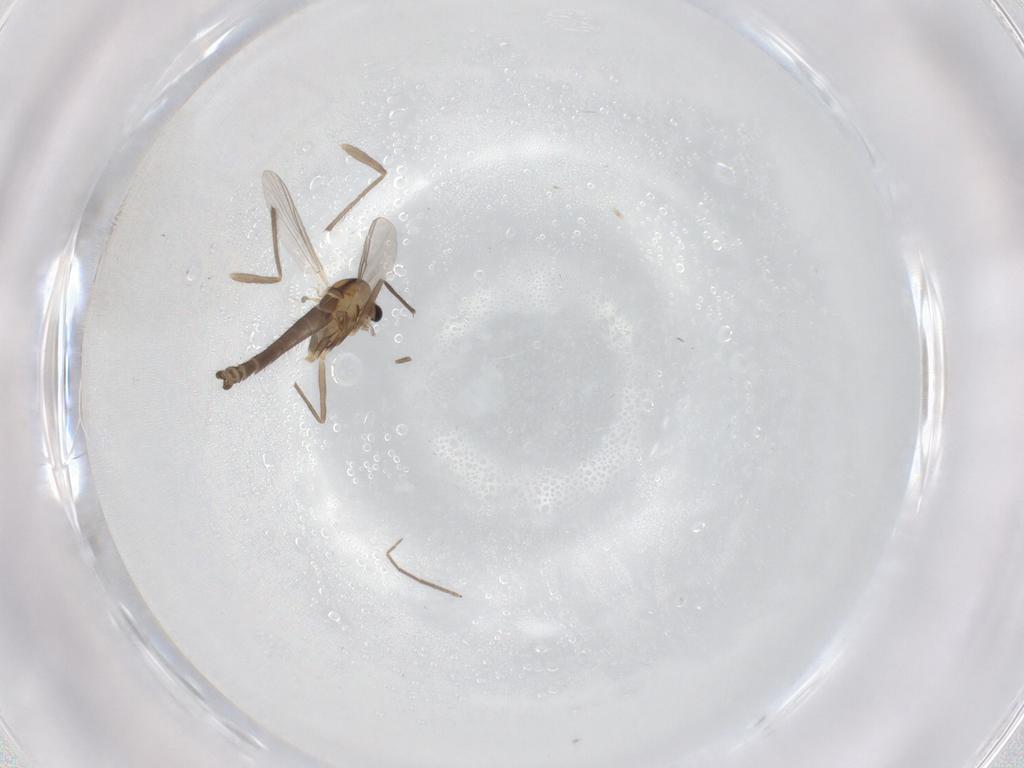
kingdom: Animalia
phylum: Arthropoda
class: Insecta
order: Diptera
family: Chironomidae
